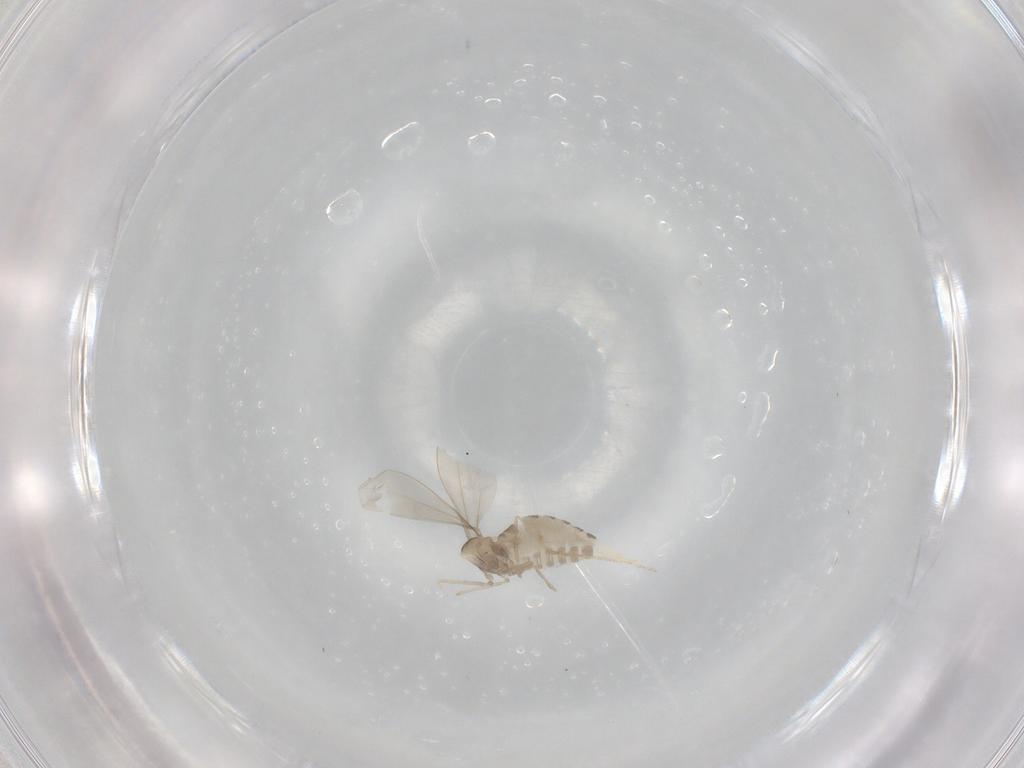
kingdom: Animalia
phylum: Arthropoda
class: Insecta
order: Diptera
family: Cecidomyiidae
